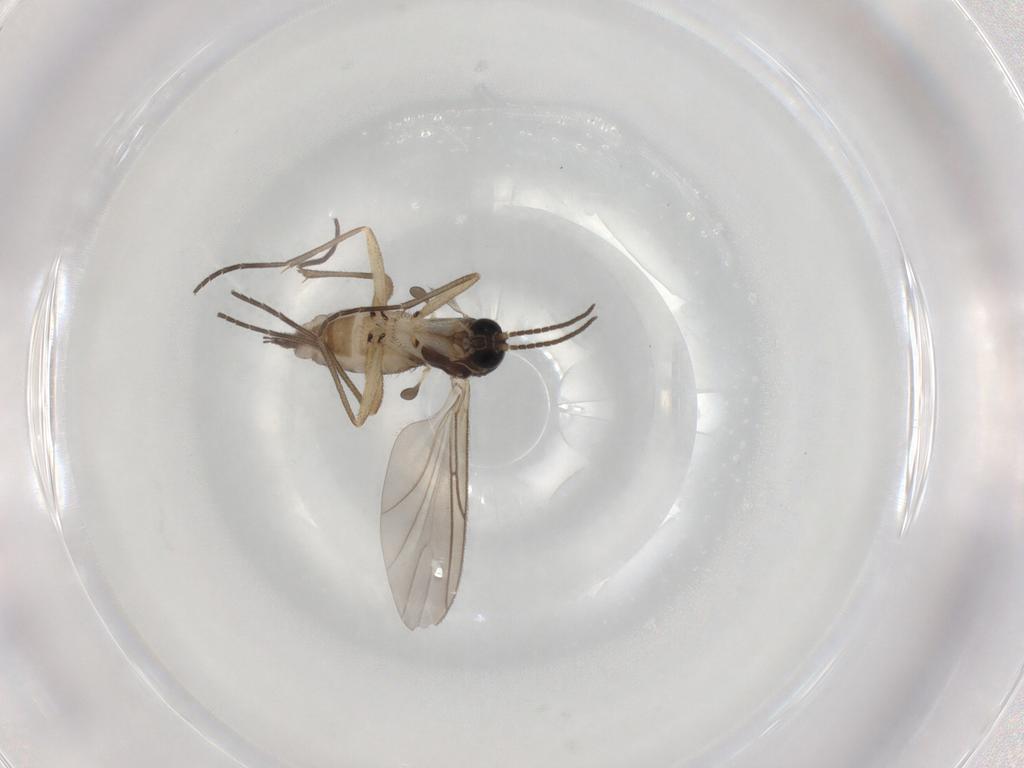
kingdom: Animalia
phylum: Arthropoda
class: Insecta
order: Diptera
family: Sciaridae
